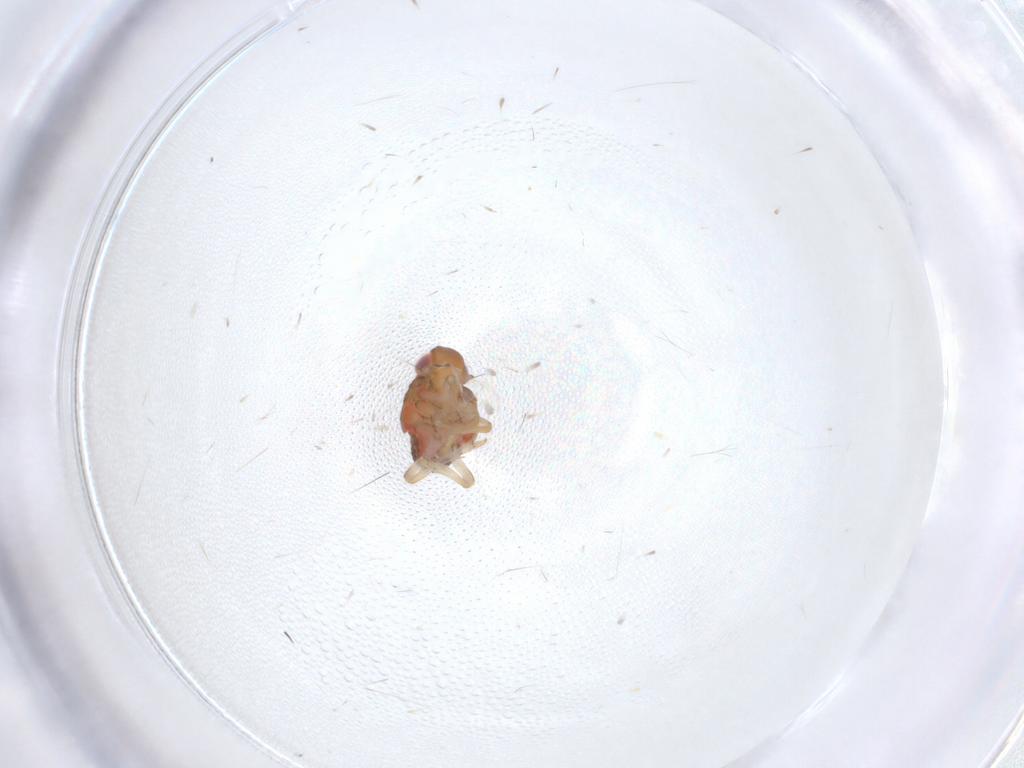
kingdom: Animalia
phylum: Arthropoda
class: Insecta
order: Hemiptera
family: Issidae
